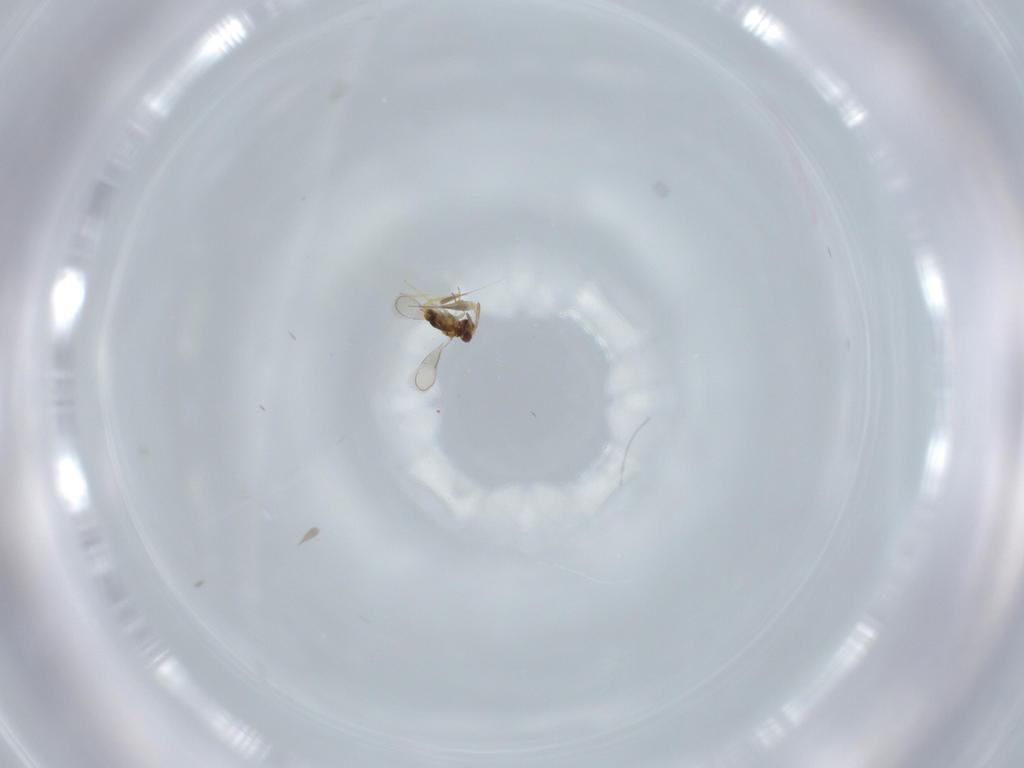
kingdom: Animalia
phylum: Arthropoda
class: Insecta
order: Hymenoptera
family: Aphelinidae
